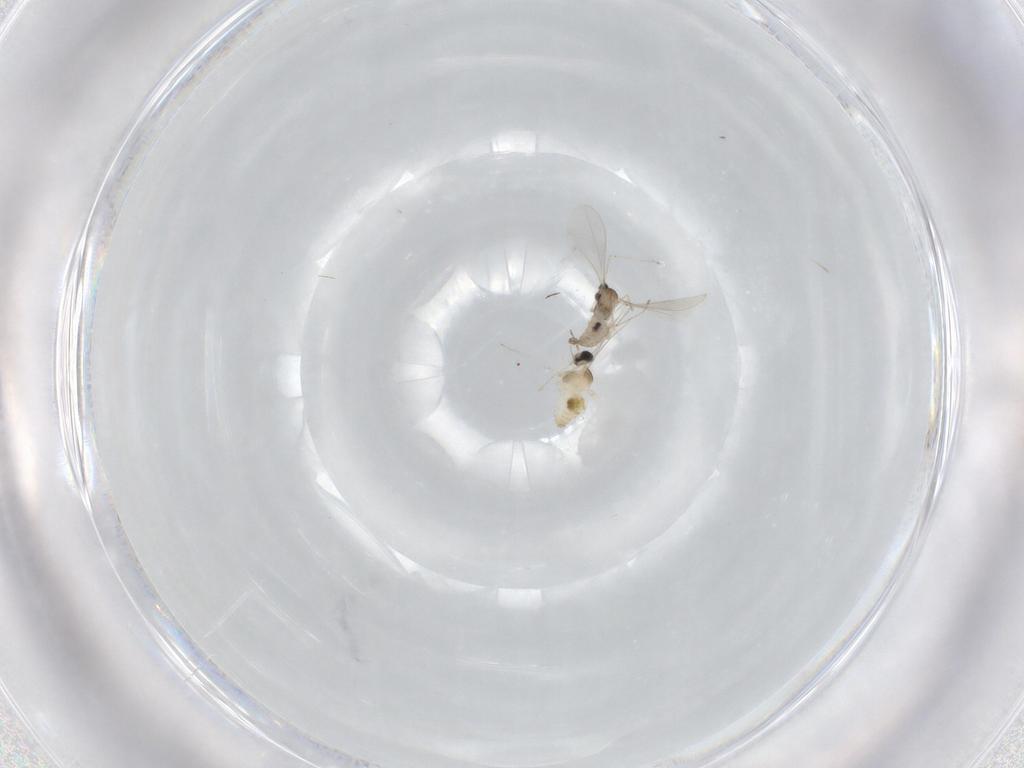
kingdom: Animalia
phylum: Arthropoda
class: Insecta
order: Diptera
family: Cecidomyiidae
